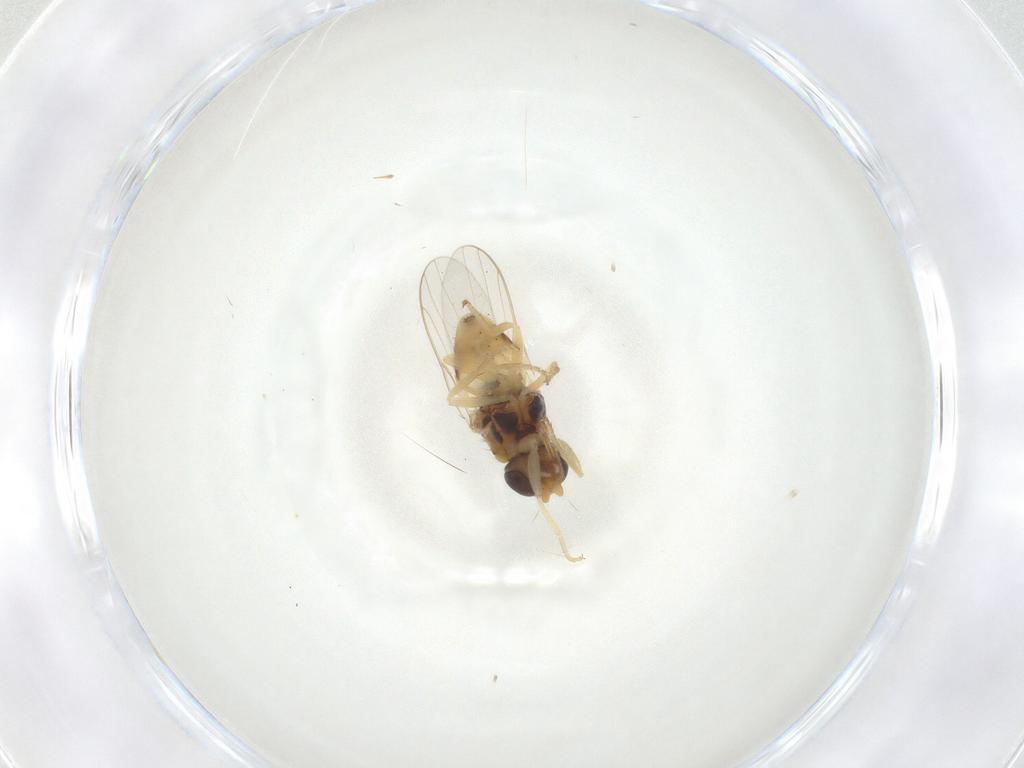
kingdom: Animalia
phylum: Arthropoda
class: Insecta
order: Diptera
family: Chloropidae
